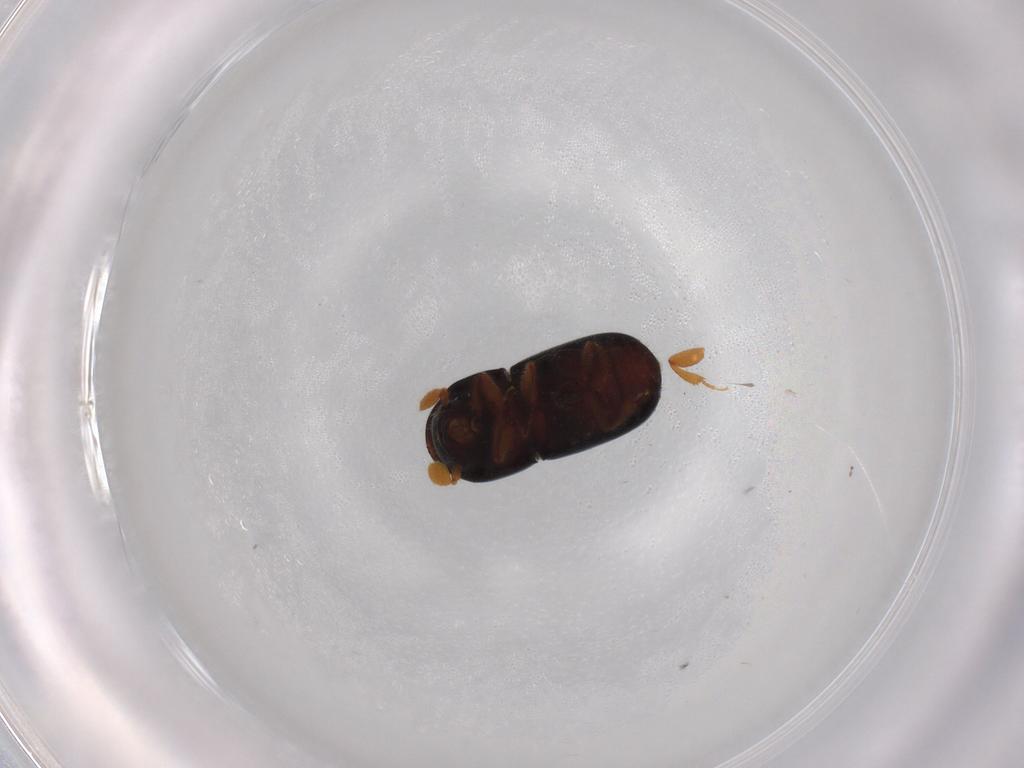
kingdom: Animalia
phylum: Arthropoda
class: Insecta
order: Coleoptera
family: Curculionidae
